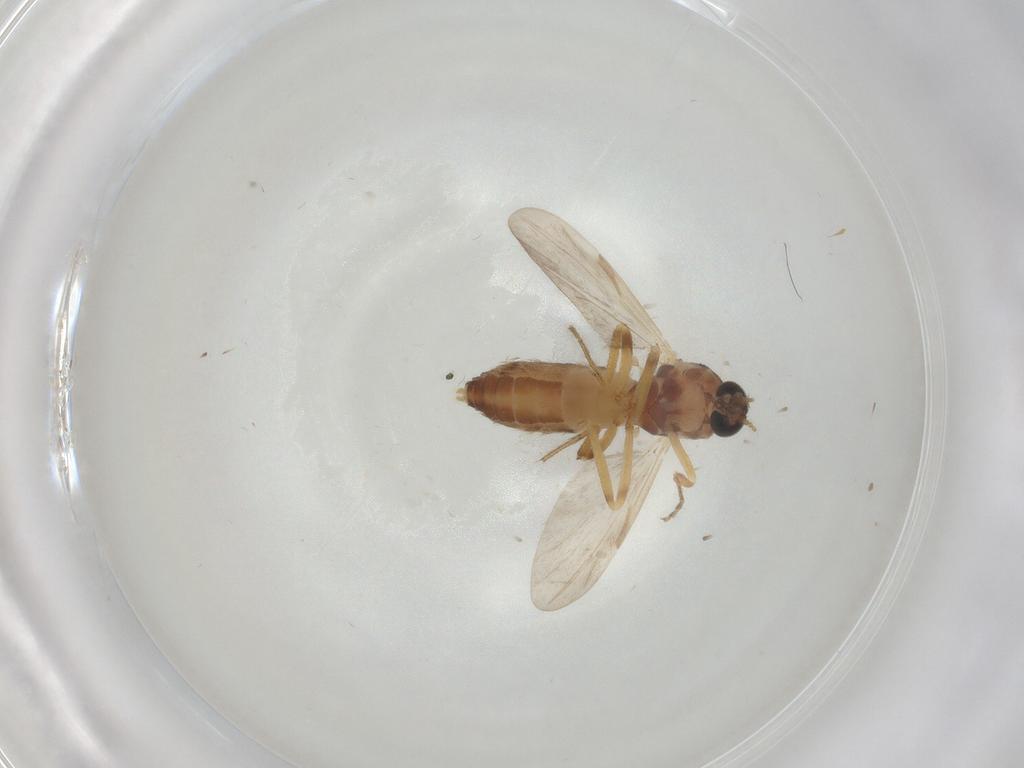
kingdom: Animalia
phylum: Arthropoda
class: Insecta
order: Diptera
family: Ceratopogonidae
